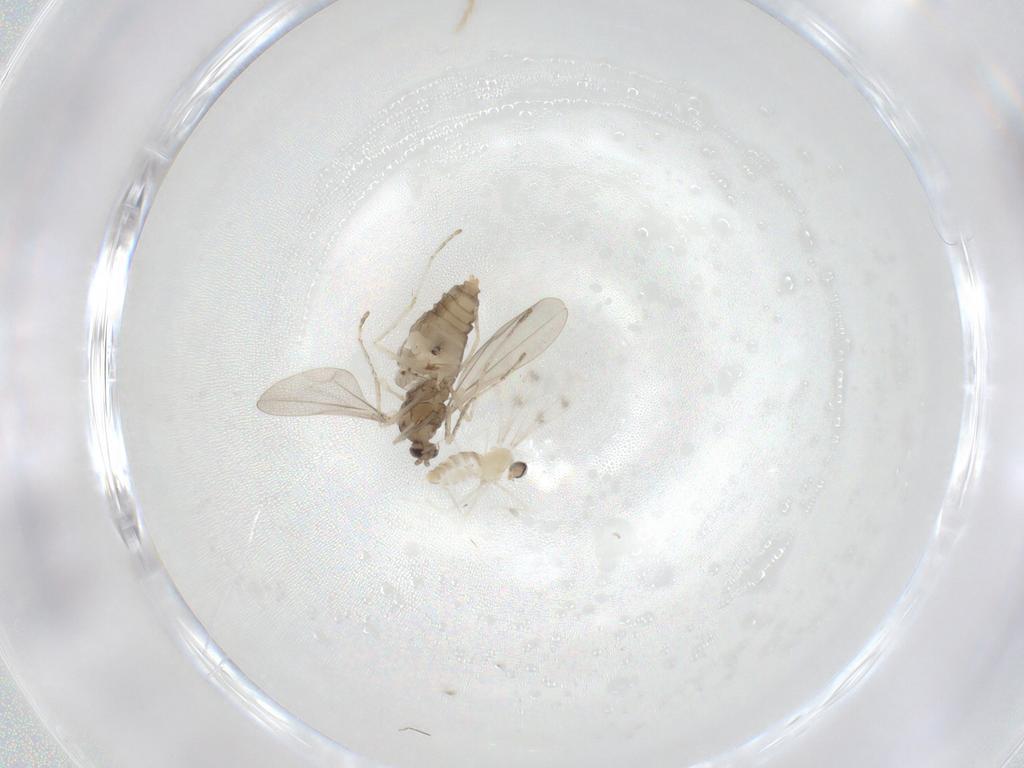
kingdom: Animalia
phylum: Arthropoda
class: Insecta
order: Diptera
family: Cecidomyiidae
